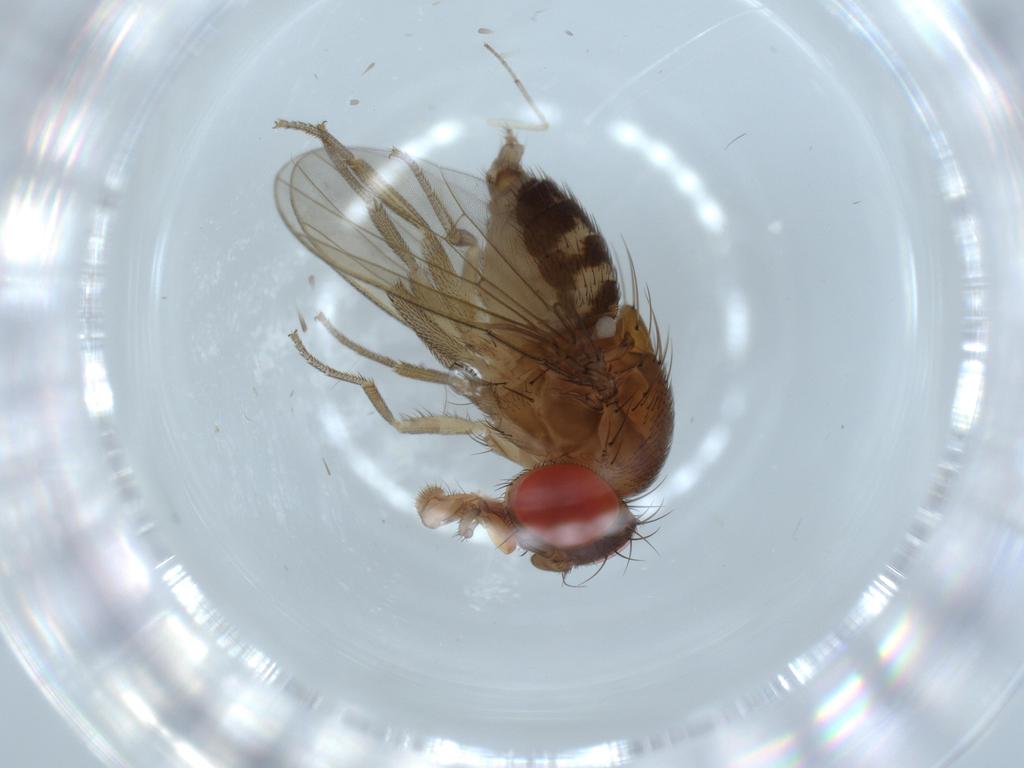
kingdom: Animalia
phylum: Arthropoda
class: Insecta
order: Diptera
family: Drosophilidae
